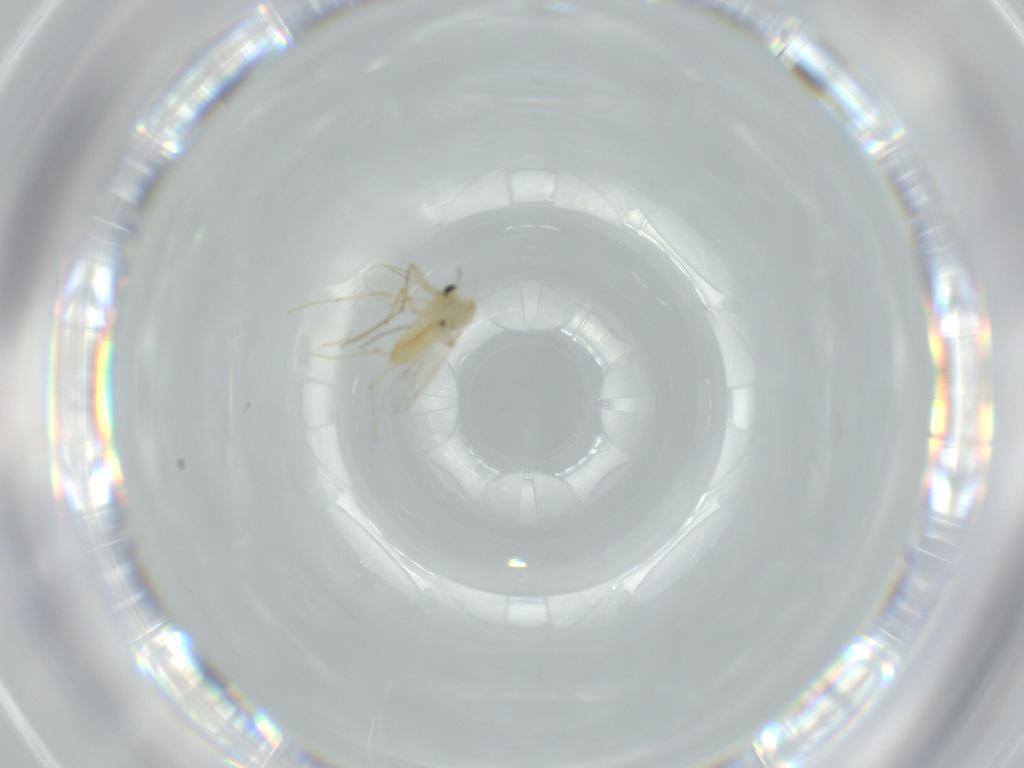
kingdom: Animalia
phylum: Arthropoda
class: Insecta
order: Diptera
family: Chironomidae
